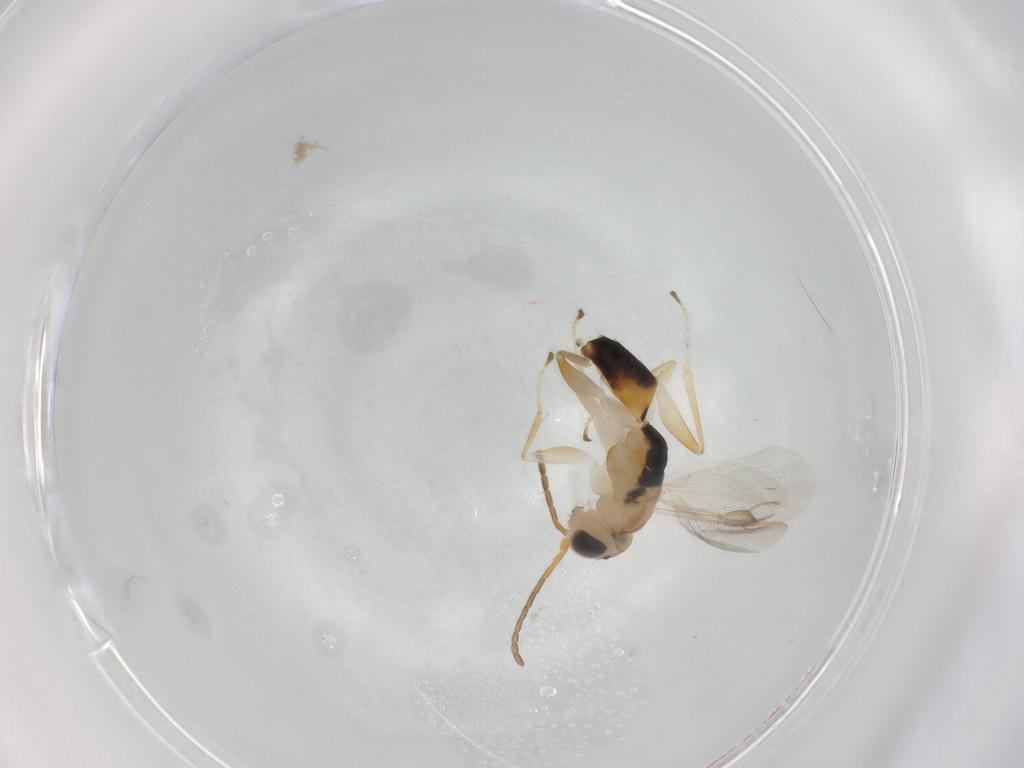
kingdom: Animalia
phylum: Arthropoda
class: Insecta
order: Hymenoptera
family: Dryinidae
